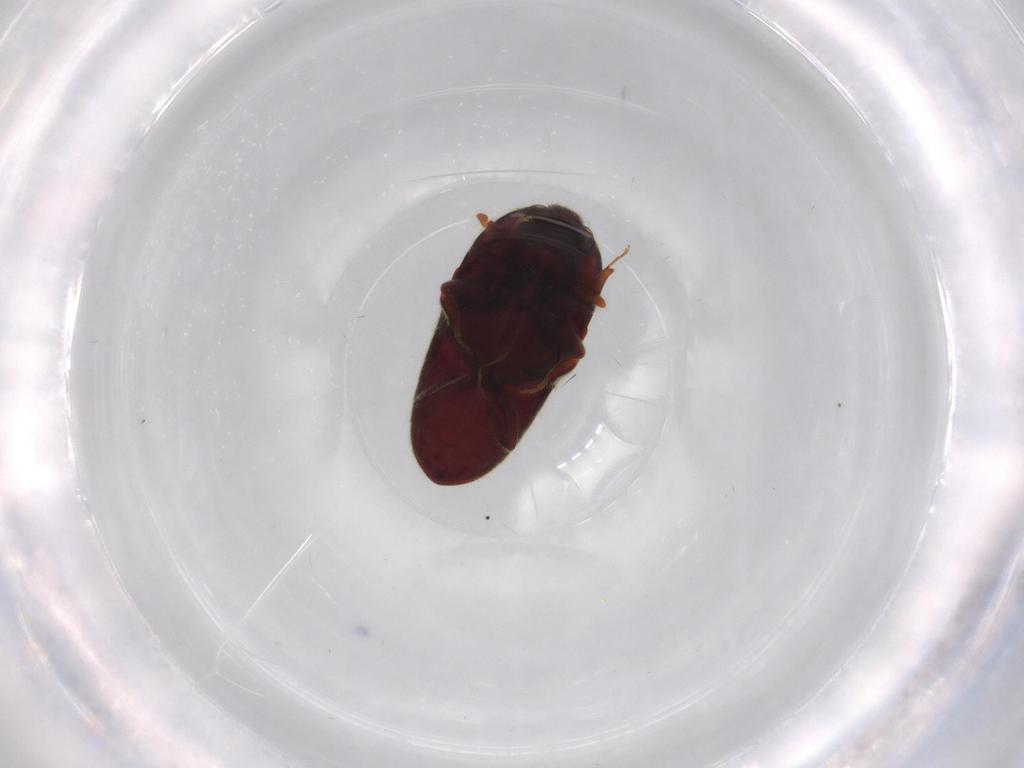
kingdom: Animalia
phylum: Arthropoda
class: Insecta
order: Coleoptera
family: Throscidae
